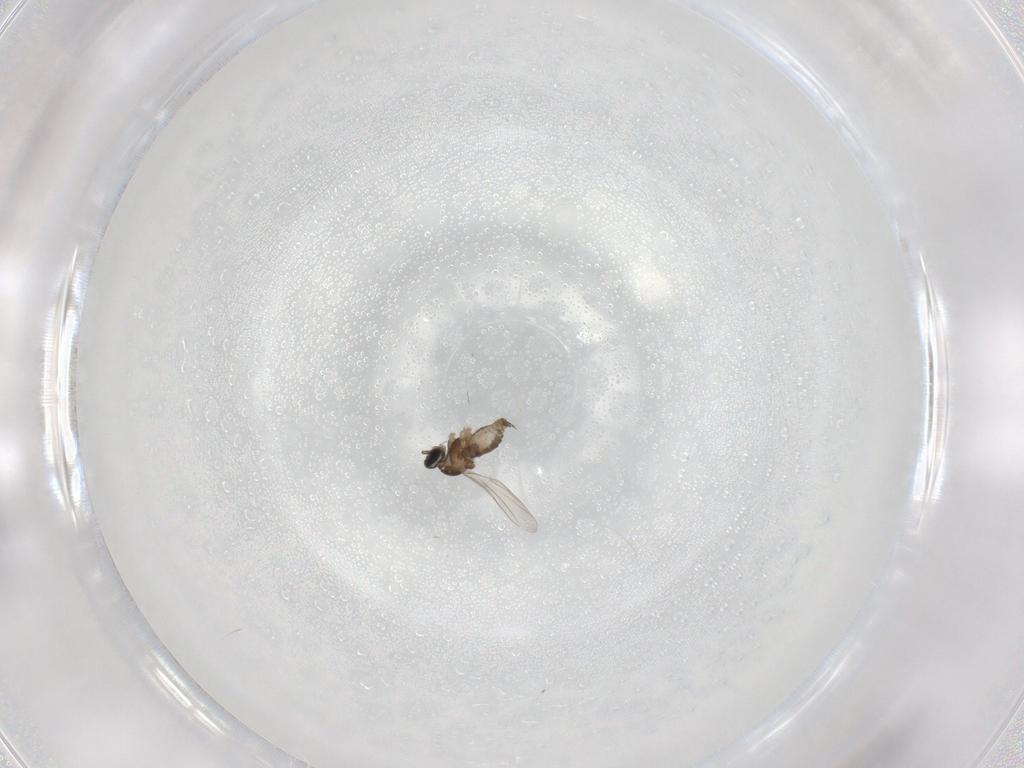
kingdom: Animalia
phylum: Arthropoda
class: Insecta
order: Diptera
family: Cecidomyiidae
